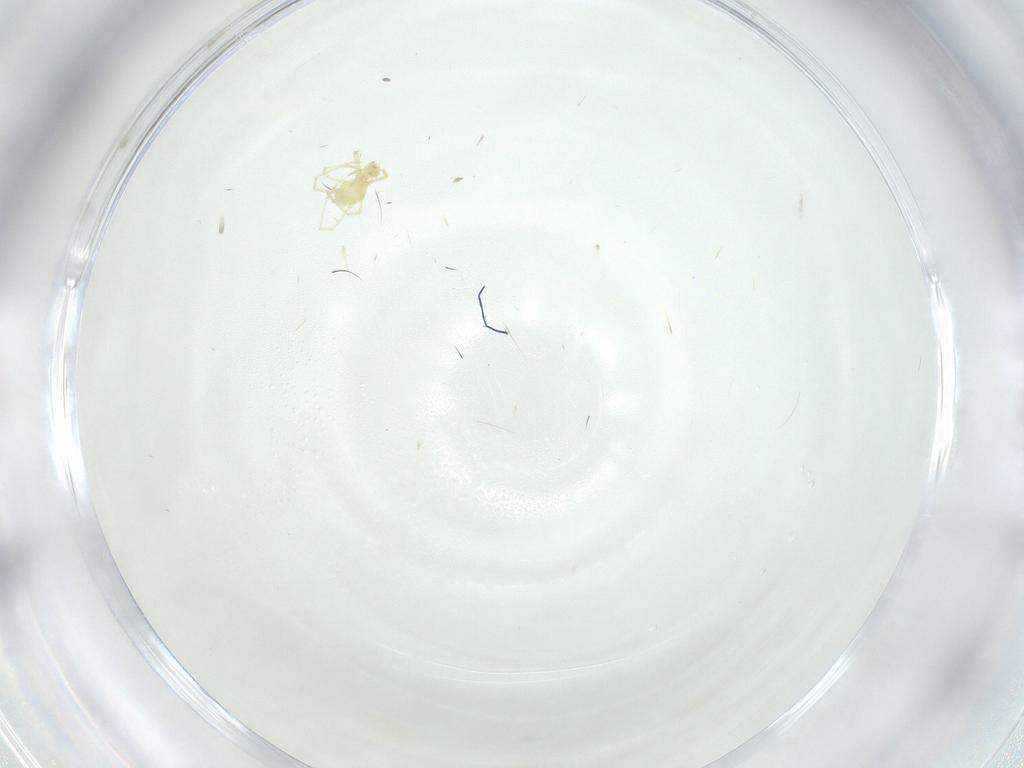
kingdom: Animalia
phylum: Arthropoda
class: Arachnida
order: Trombidiformes
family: Erythraeidae
